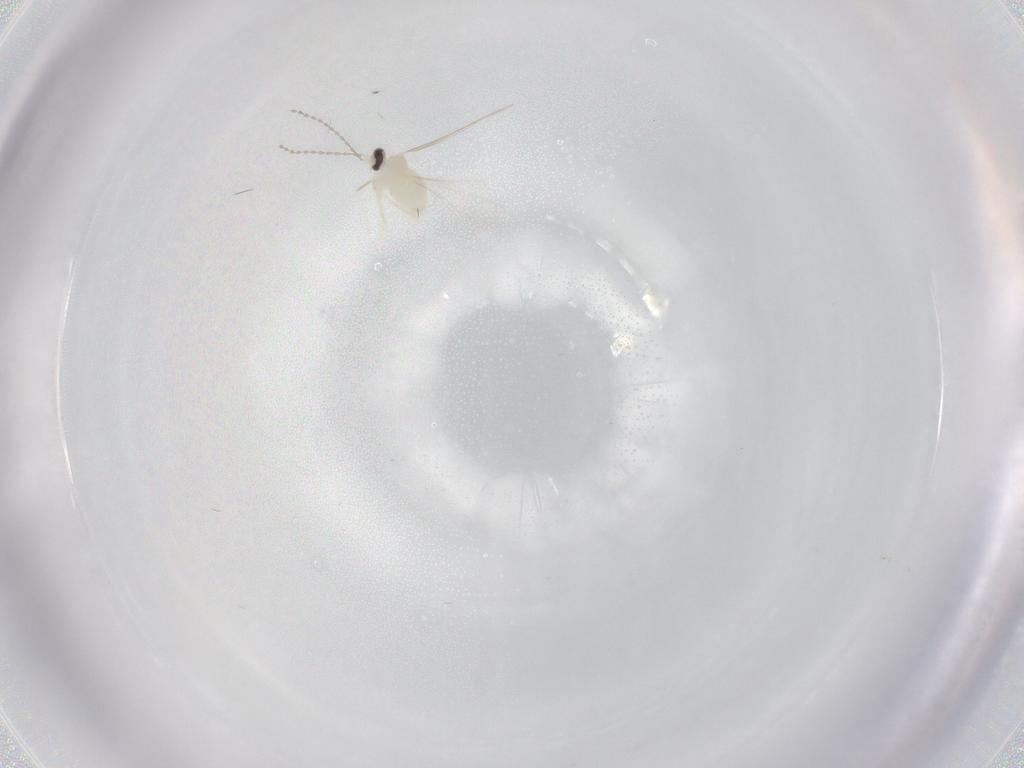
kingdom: Animalia
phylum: Arthropoda
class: Insecta
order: Diptera
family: Cecidomyiidae
